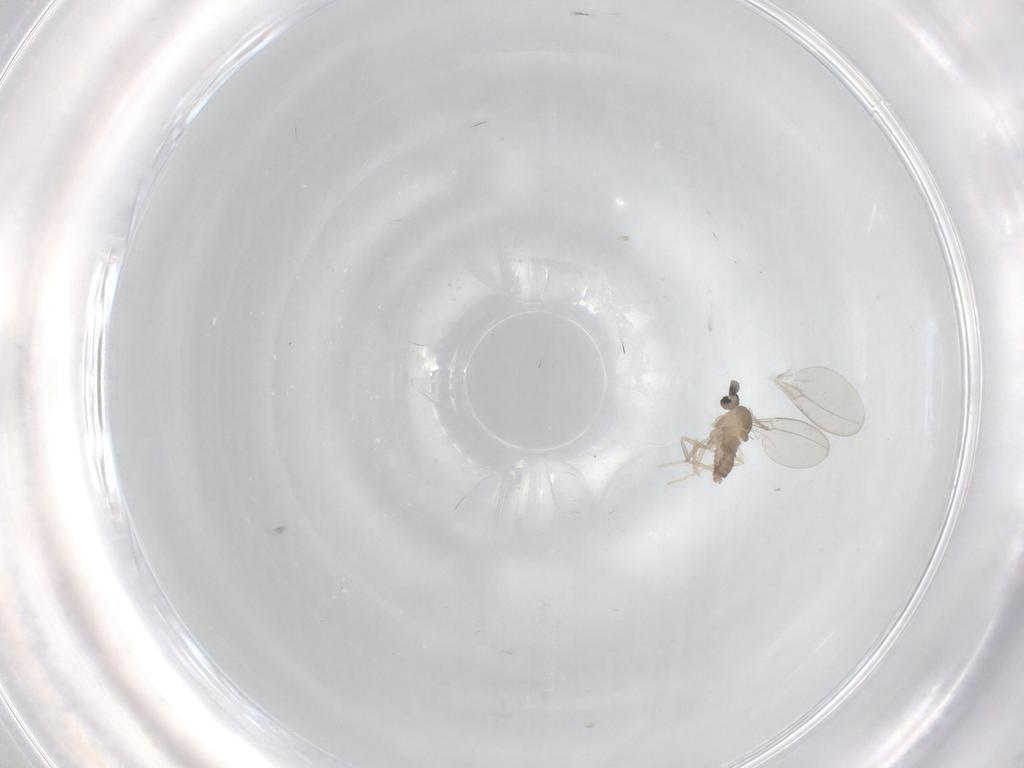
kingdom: Animalia
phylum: Arthropoda
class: Insecta
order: Diptera
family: Cecidomyiidae
